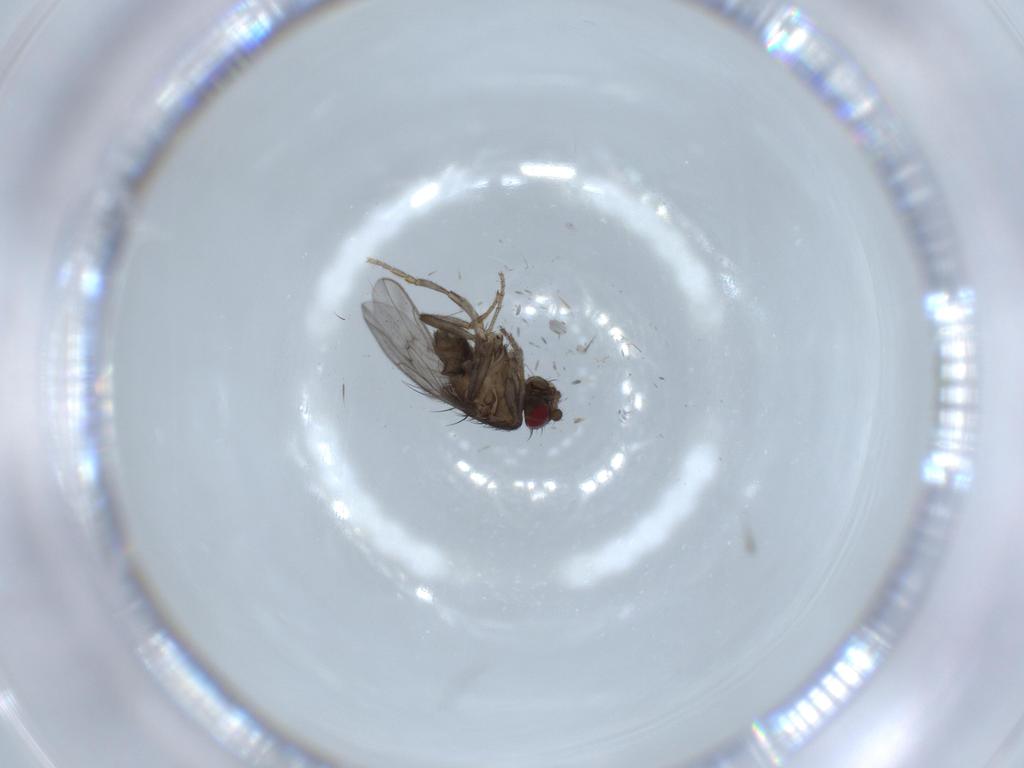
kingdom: Animalia
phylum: Arthropoda
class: Insecta
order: Diptera
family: Sphaeroceridae
